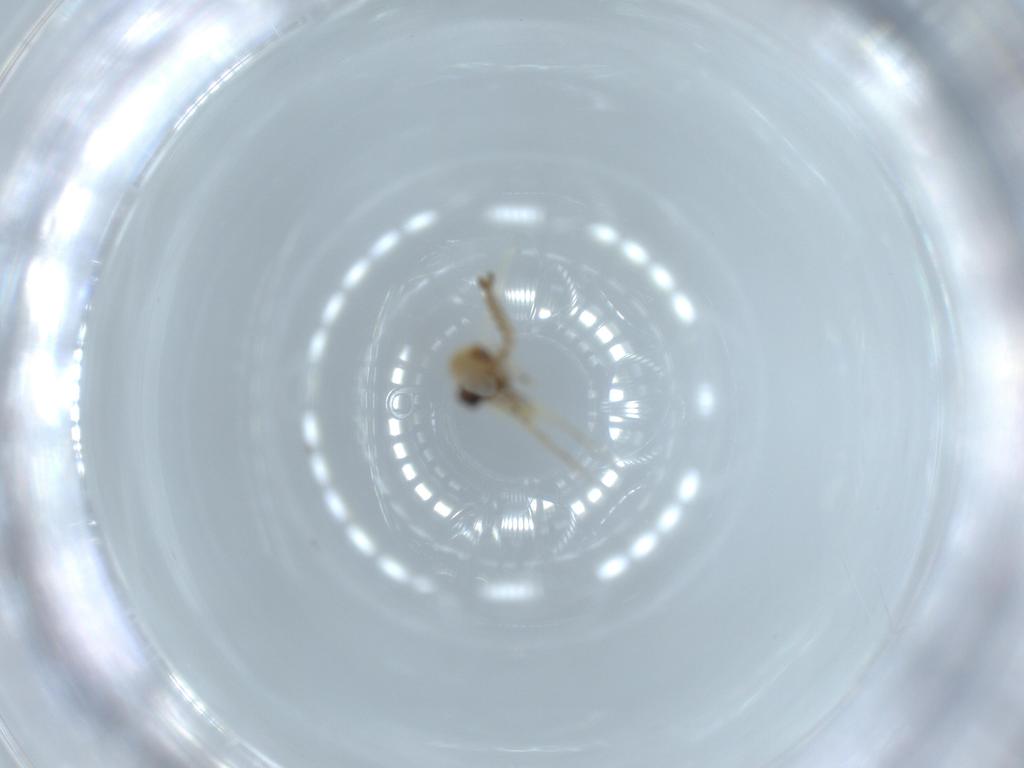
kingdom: Animalia
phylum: Arthropoda
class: Insecta
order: Diptera
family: Ceratopogonidae
